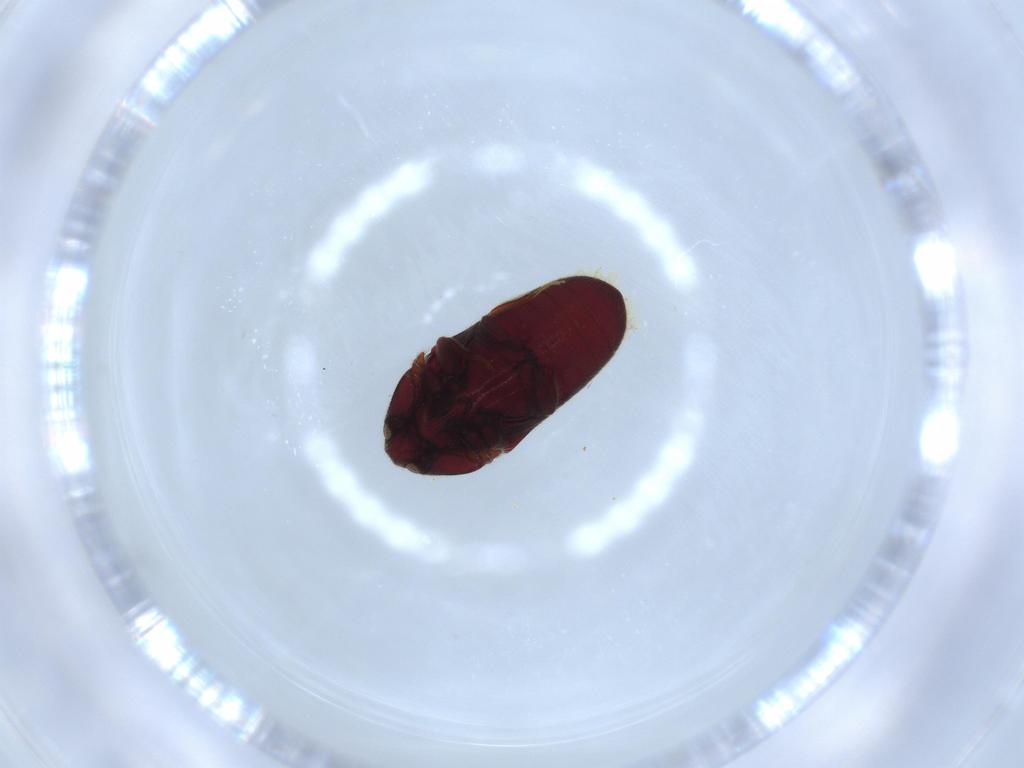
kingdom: Animalia
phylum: Arthropoda
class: Insecta
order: Coleoptera
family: Throscidae
